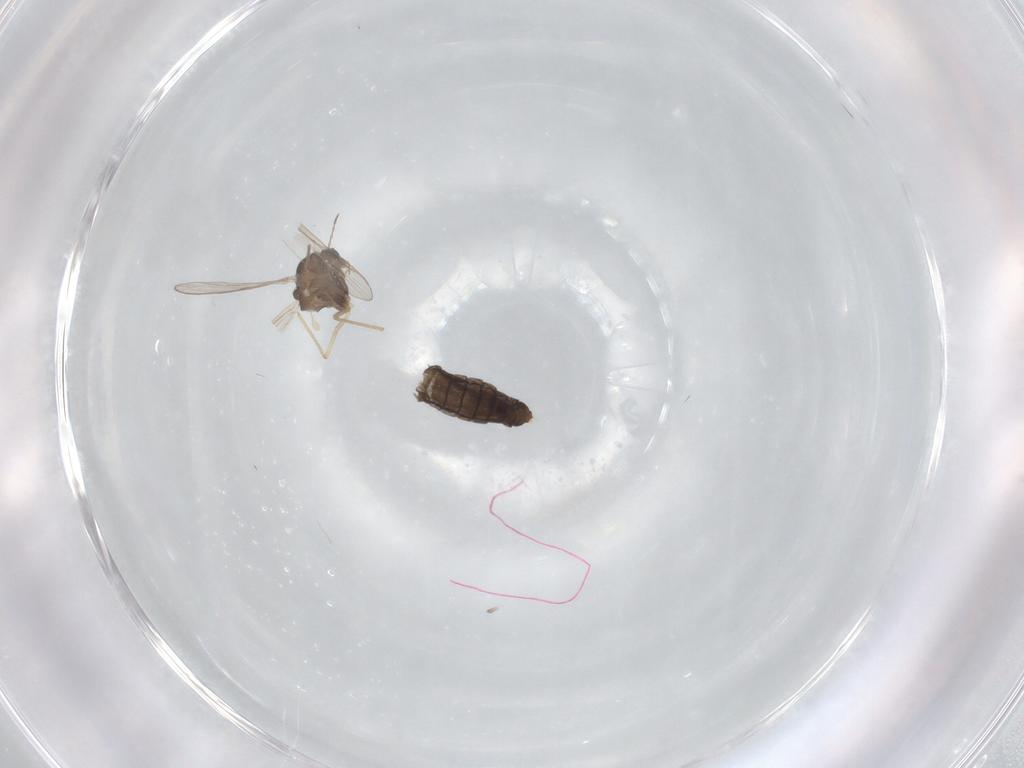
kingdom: Animalia
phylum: Arthropoda
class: Insecta
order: Diptera
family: Chironomidae
